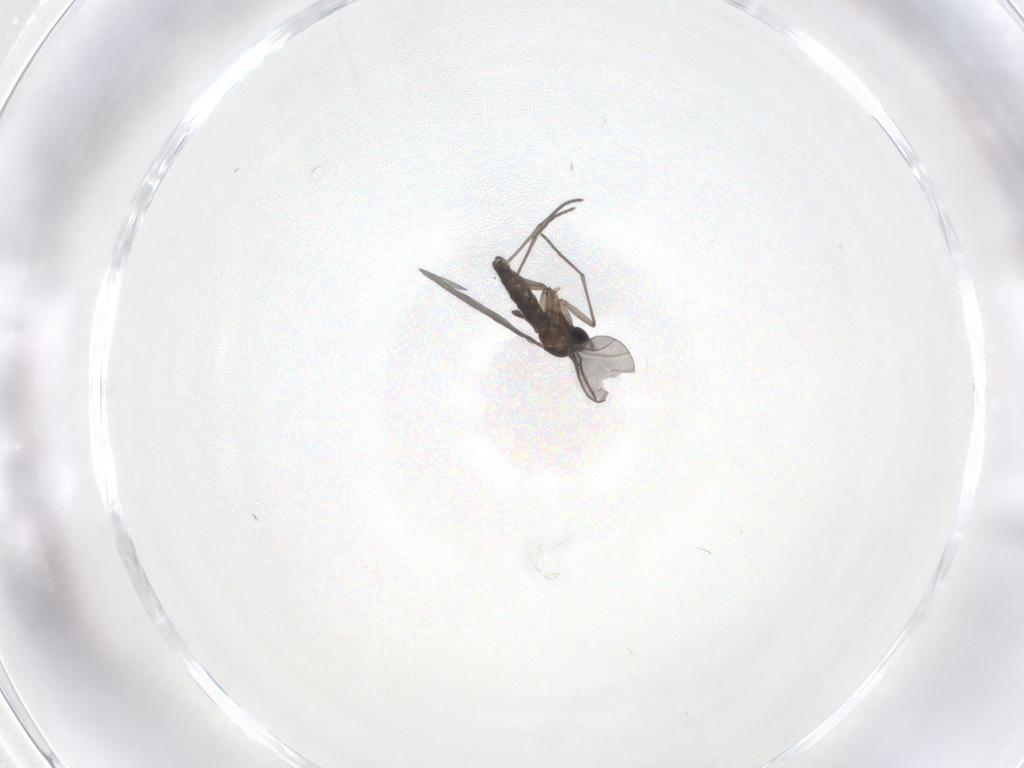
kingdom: Animalia
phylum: Arthropoda
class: Insecta
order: Diptera
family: Cecidomyiidae
